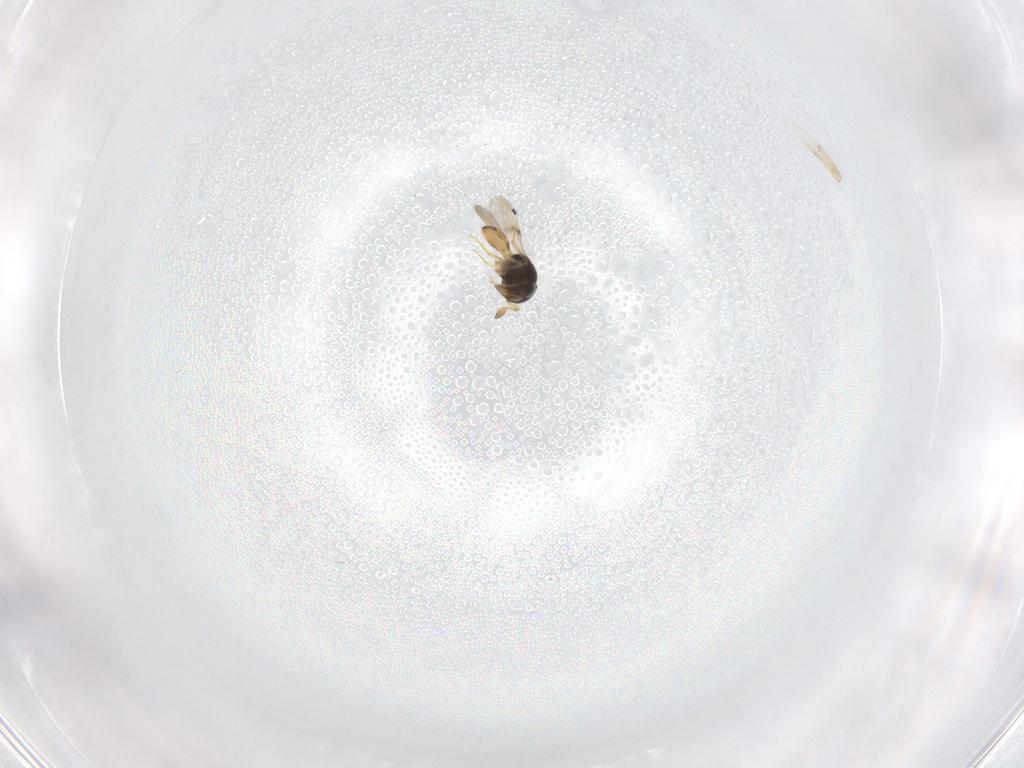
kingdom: Animalia
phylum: Arthropoda
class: Insecta
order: Hymenoptera
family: Scelionidae
